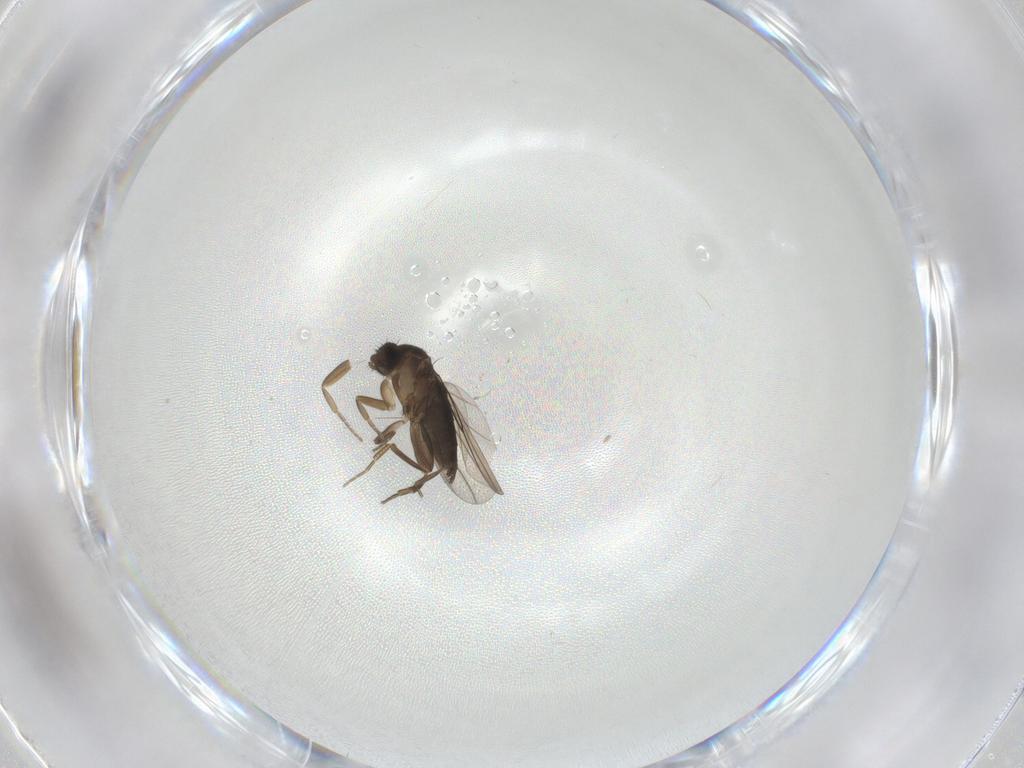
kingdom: Animalia
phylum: Arthropoda
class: Insecta
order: Diptera
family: Phoridae
